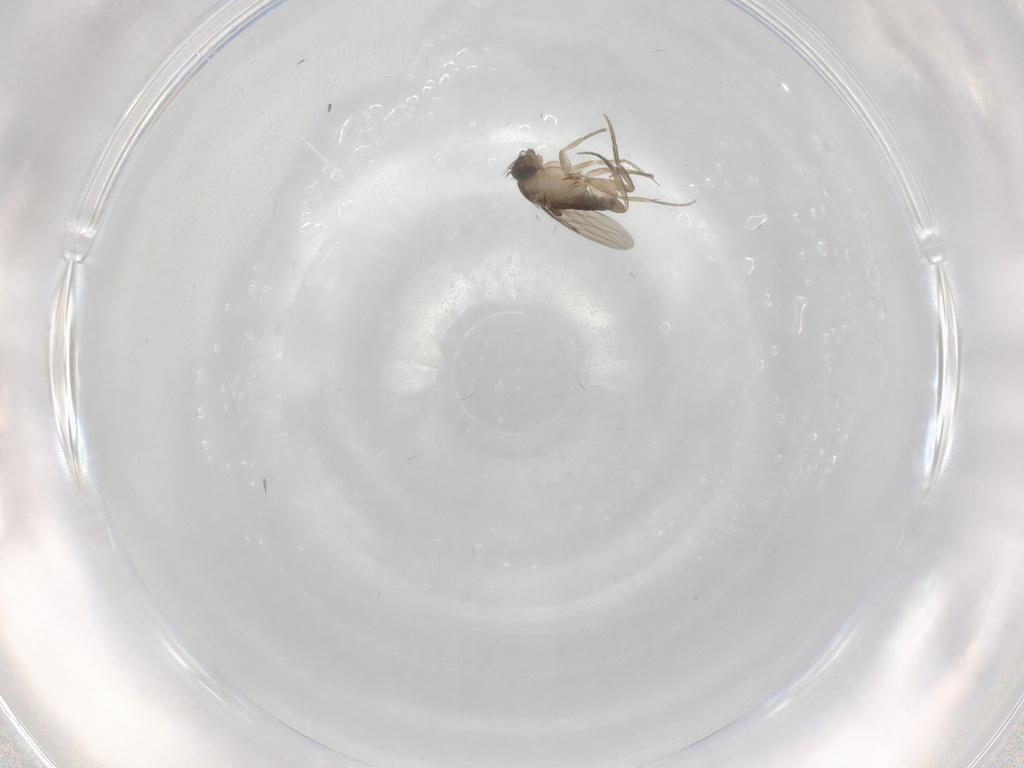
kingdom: Animalia
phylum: Arthropoda
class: Insecta
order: Diptera
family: Phoridae
